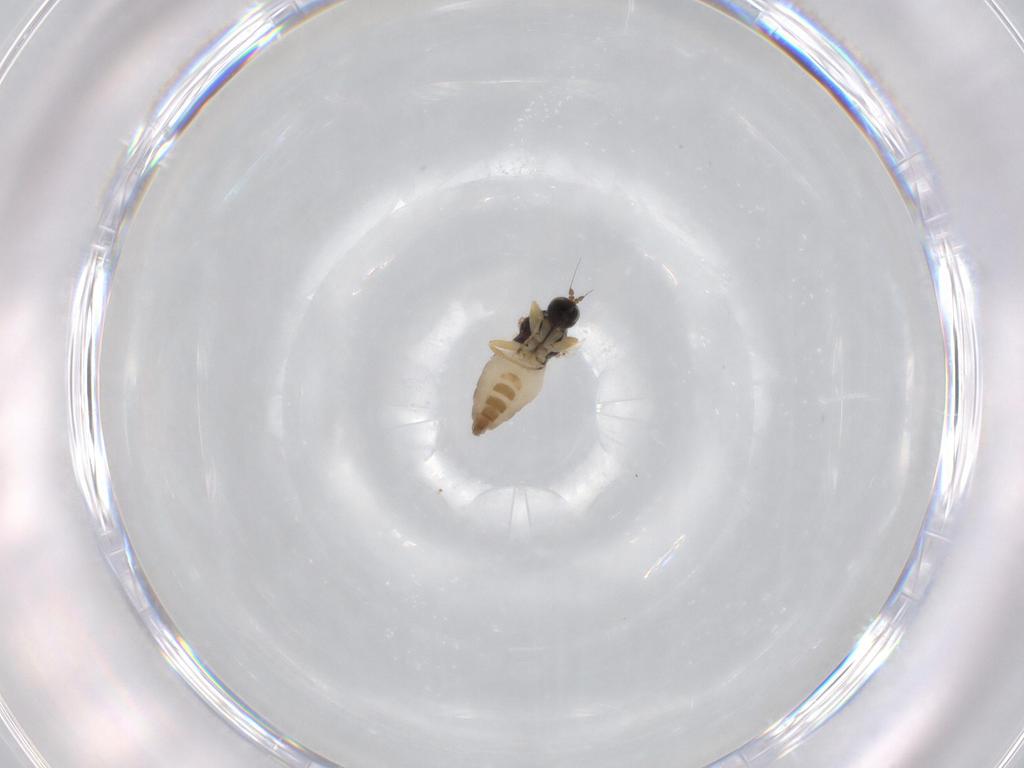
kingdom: Animalia
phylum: Arthropoda
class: Insecta
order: Diptera
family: Hybotidae
